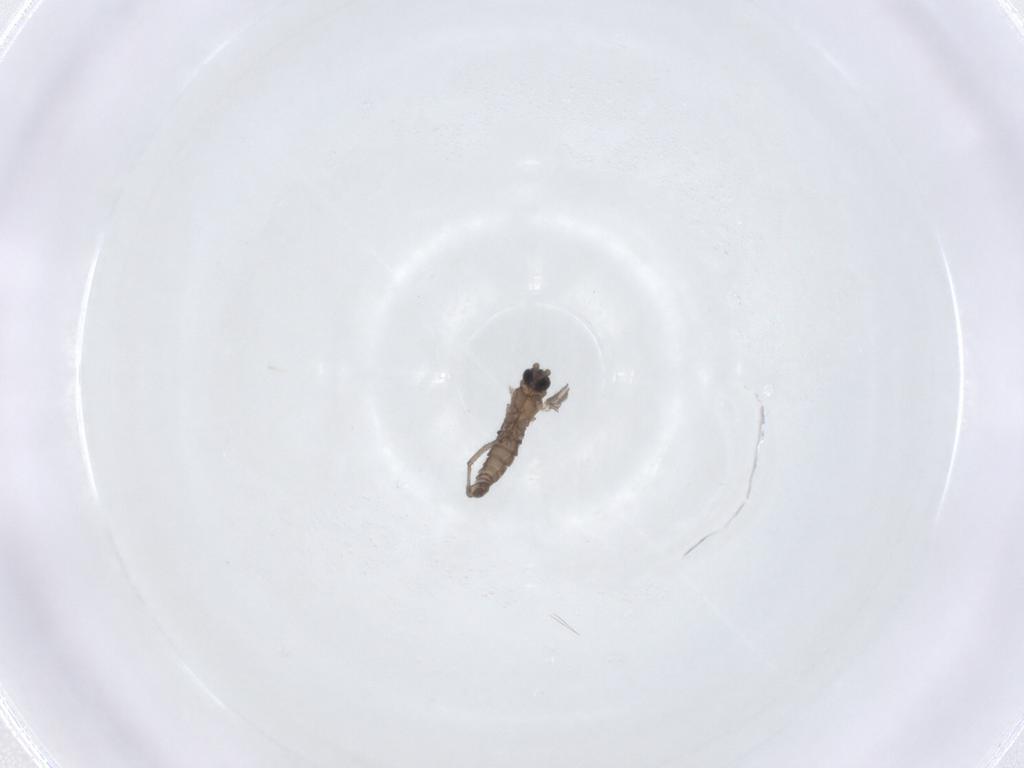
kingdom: Animalia
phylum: Arthropoda
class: Insecta
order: Diptera
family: Sciaridae
